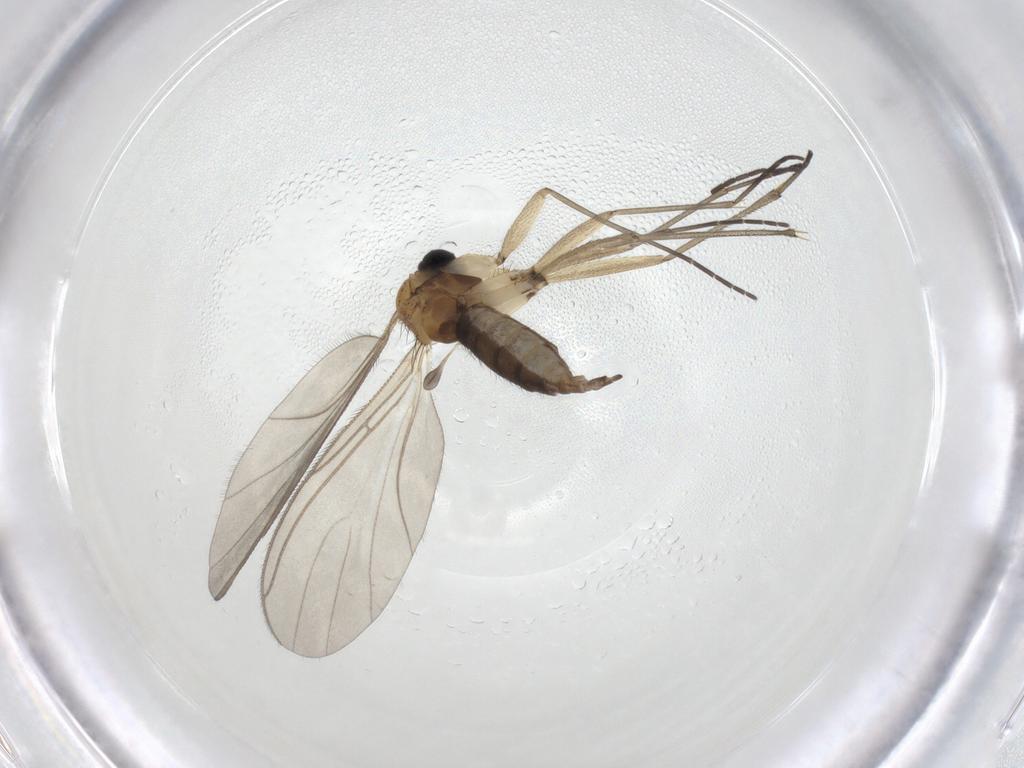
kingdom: Animalia
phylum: Arthropoda
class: Insecta
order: Diptera
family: Sciaridae
